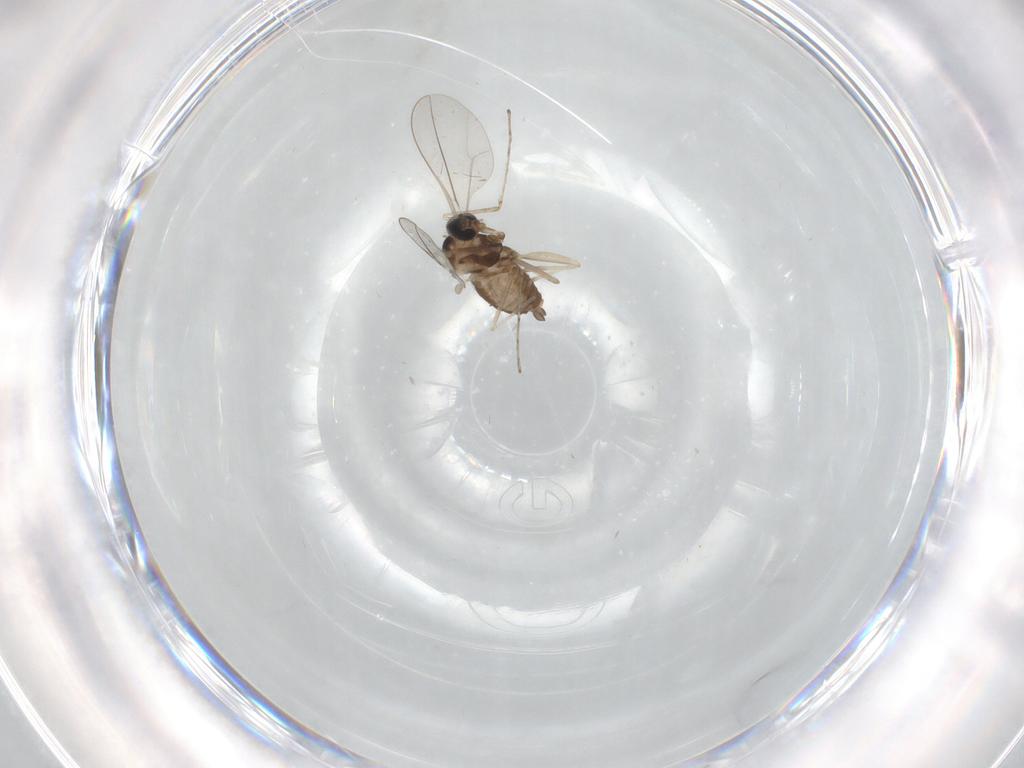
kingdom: Animalia
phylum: Arthropoda
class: Insecta
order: Diptera
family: Cecidomyiidae
